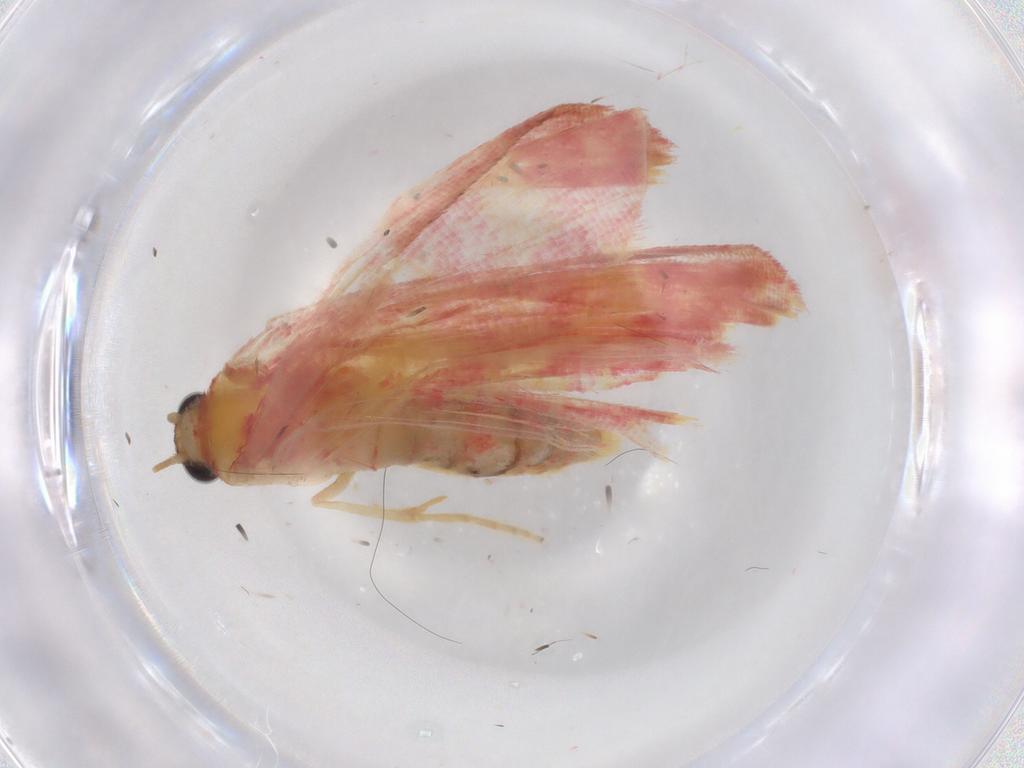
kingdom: Animalia
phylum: Arthropoda
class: Insecta
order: Lepidoptera
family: Geometridae
